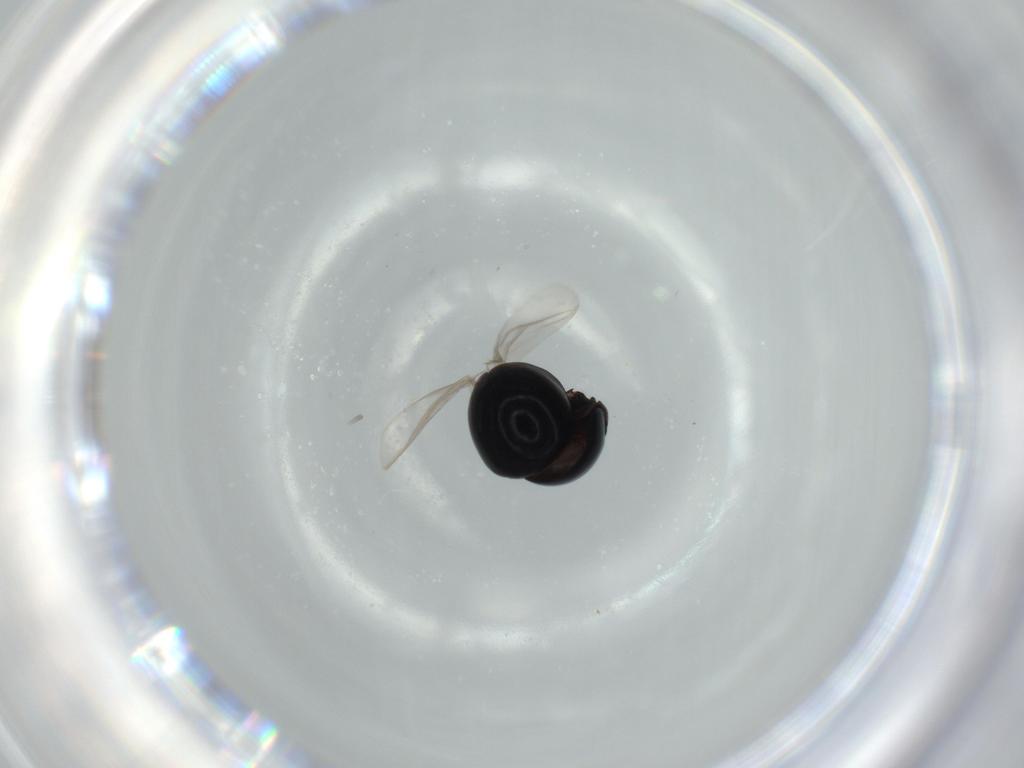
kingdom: Animalia
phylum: Arthropoda
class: Insecta
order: Coleoptera
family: Cybocephalidae
